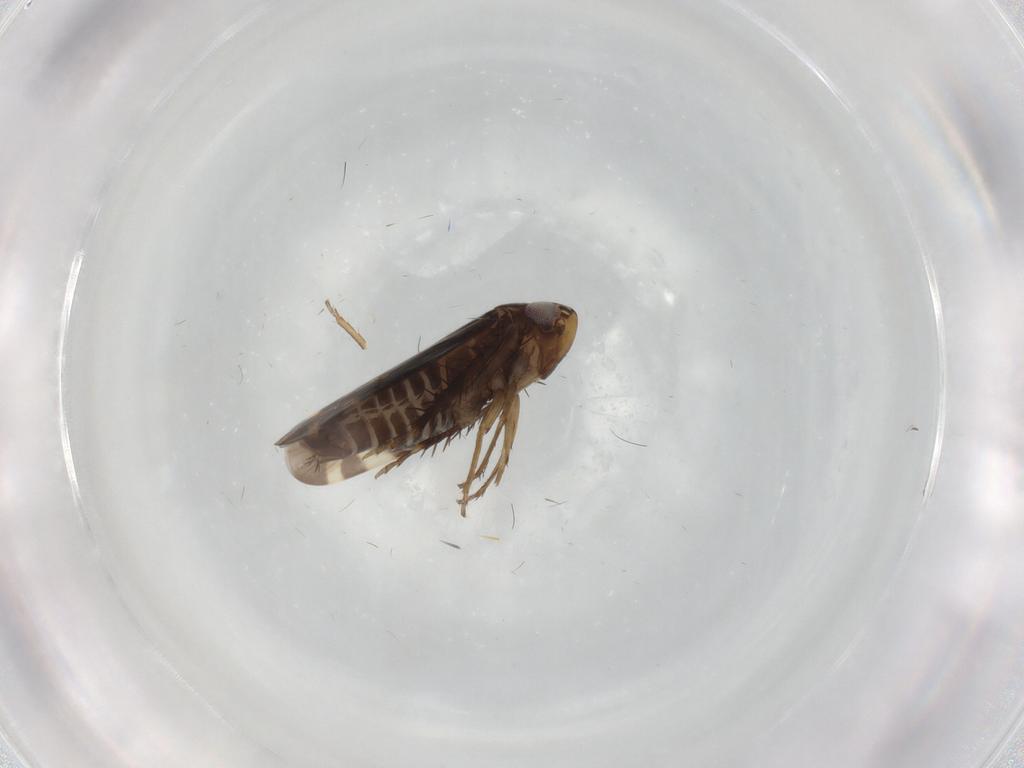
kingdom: Animalia
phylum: Arthropoda
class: Insecta
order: Hemiptera
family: Cicadellidae
